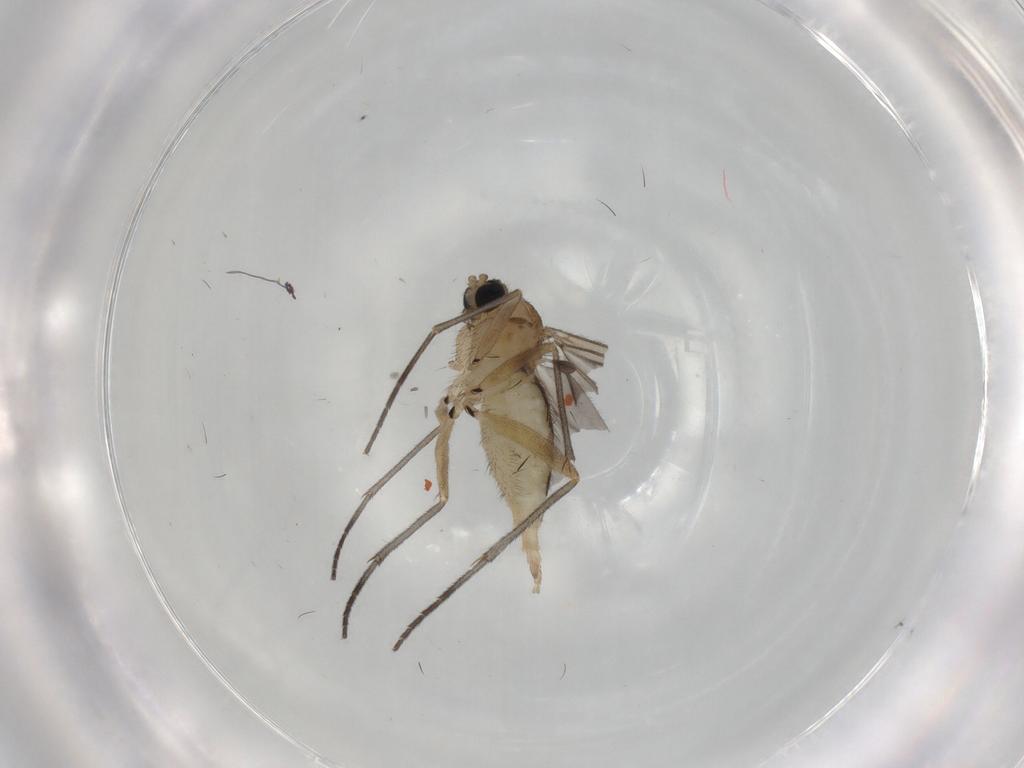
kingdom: Animalia
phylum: Arthropoda
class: Insecta
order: Diptera
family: Sciaridae
